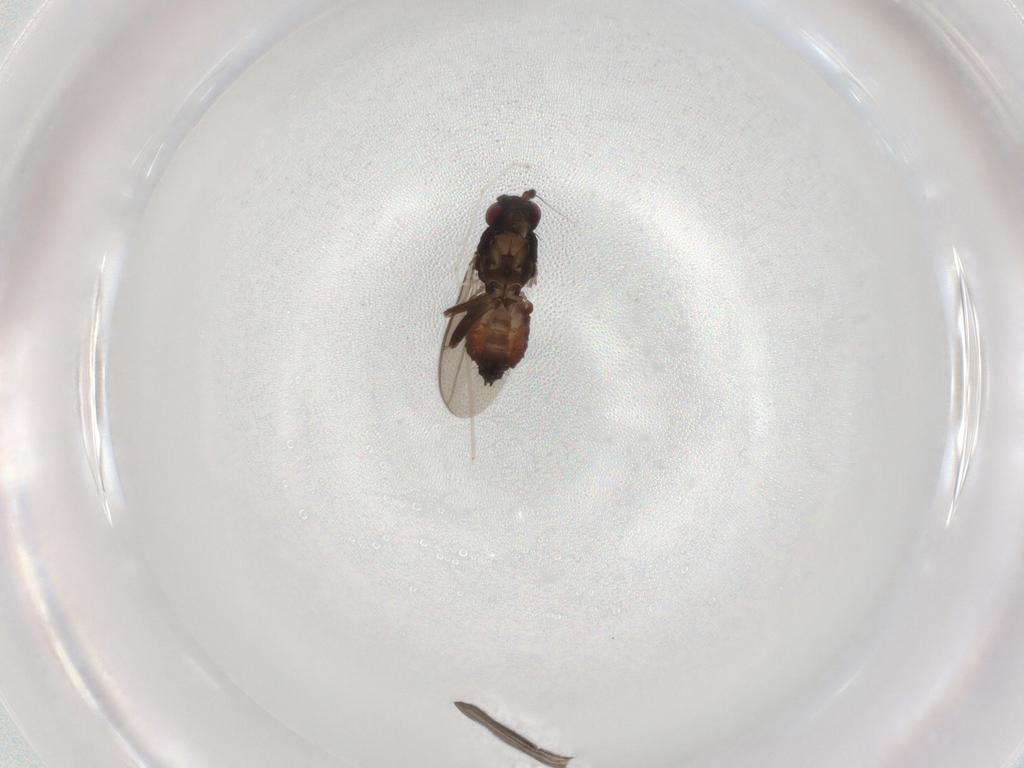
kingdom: Animalia
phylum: Arthropoda
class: Insecta
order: Diptera
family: Sphaeroceridae
